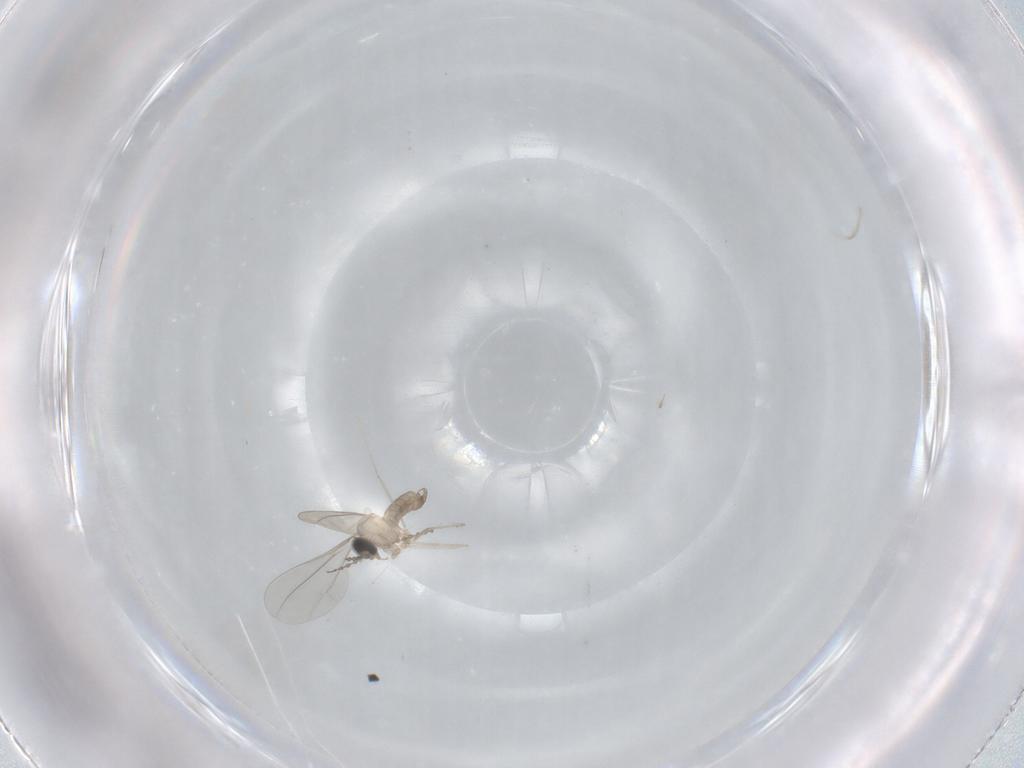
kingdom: Animalia
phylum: Arthropoda
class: Insecta
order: Diptera
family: Cecidomyiidae
